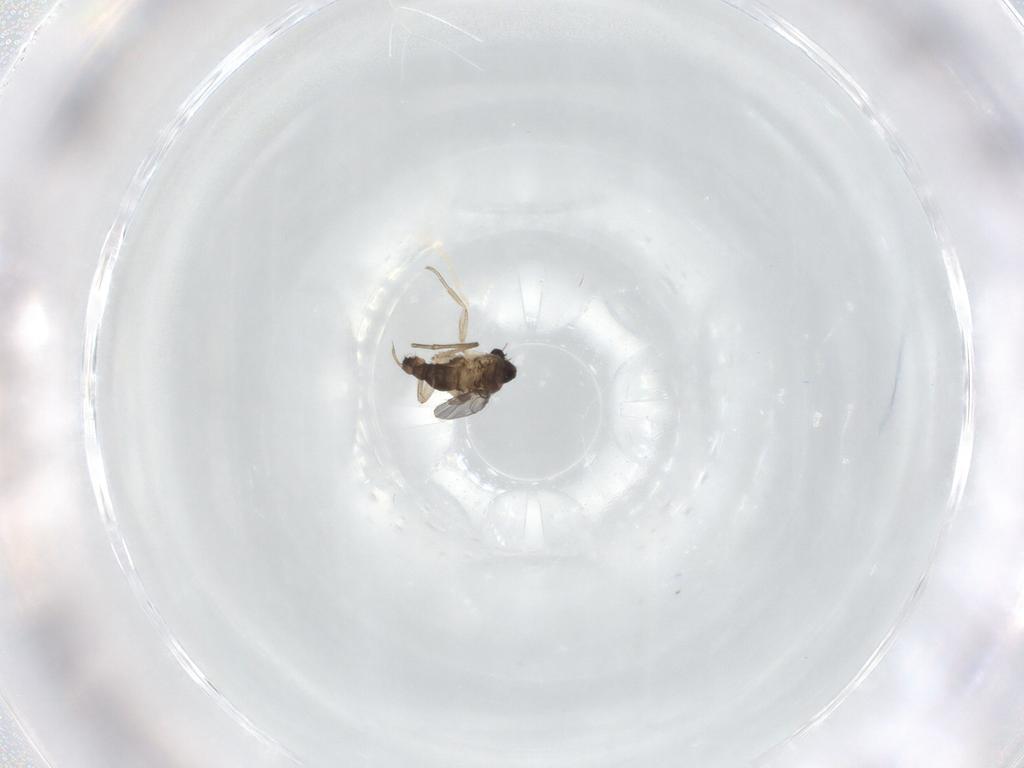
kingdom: Animalia
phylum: Arthropoda
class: Insecta
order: Diptera
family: Phoridae
